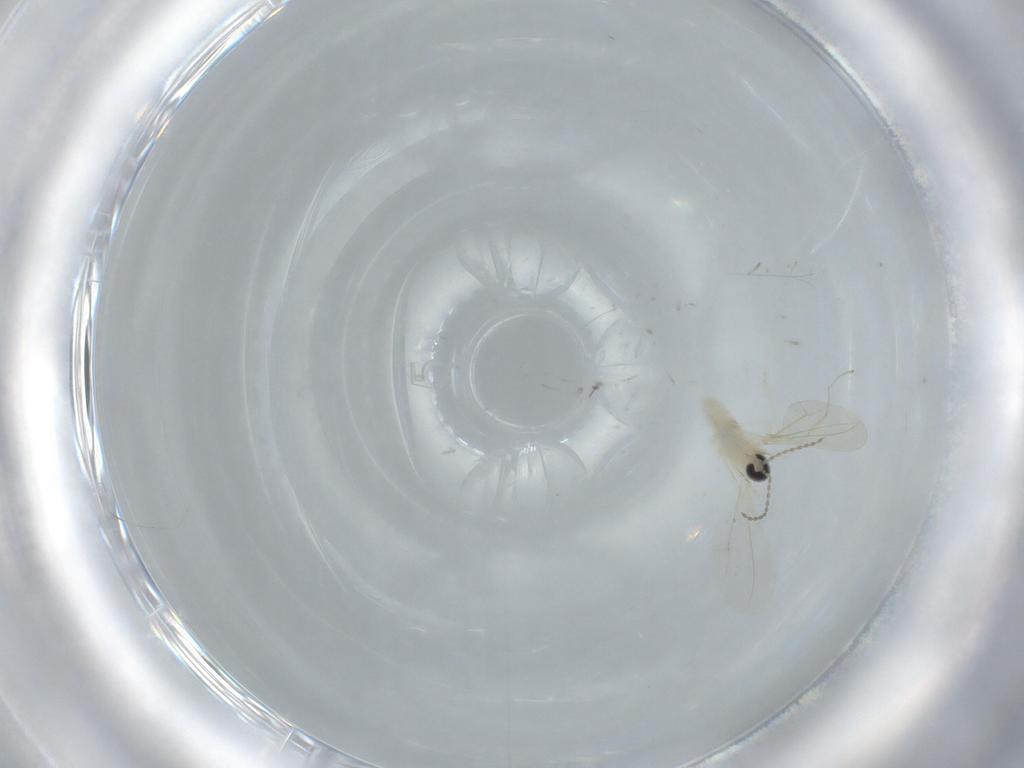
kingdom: Animalia
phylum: Arthropoda
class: Insecta
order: Diptera
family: Cecidomyiidae
